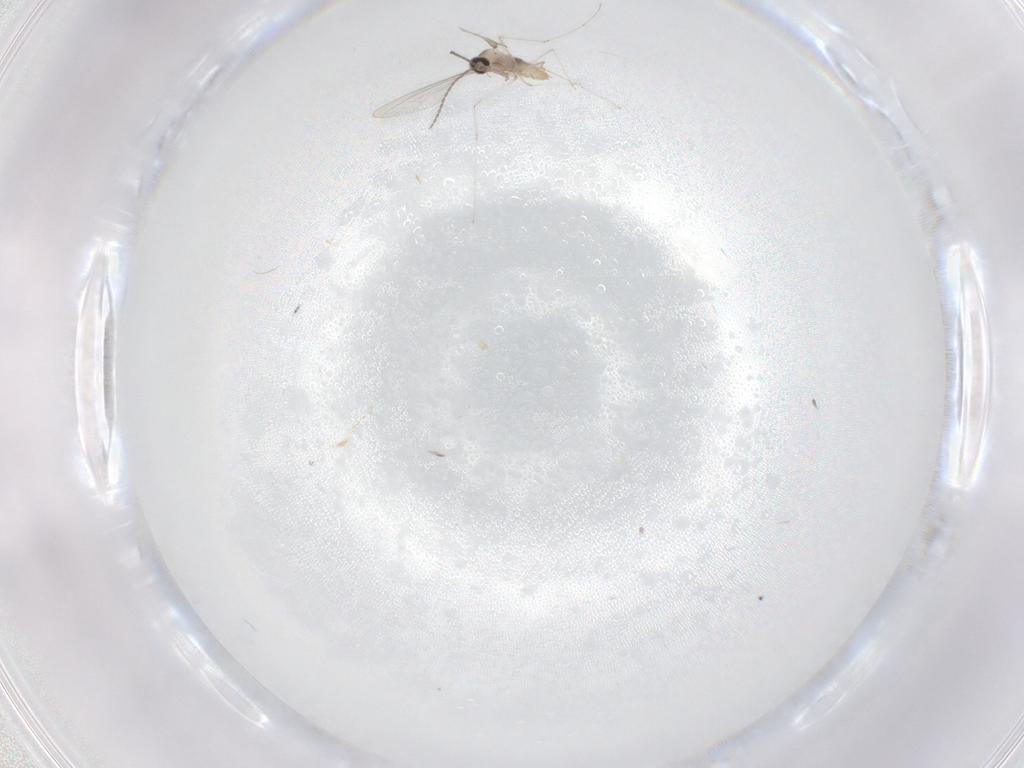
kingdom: Animalia
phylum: Arthropoda
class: Insecta
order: Diptera
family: Cecidomyiidae
